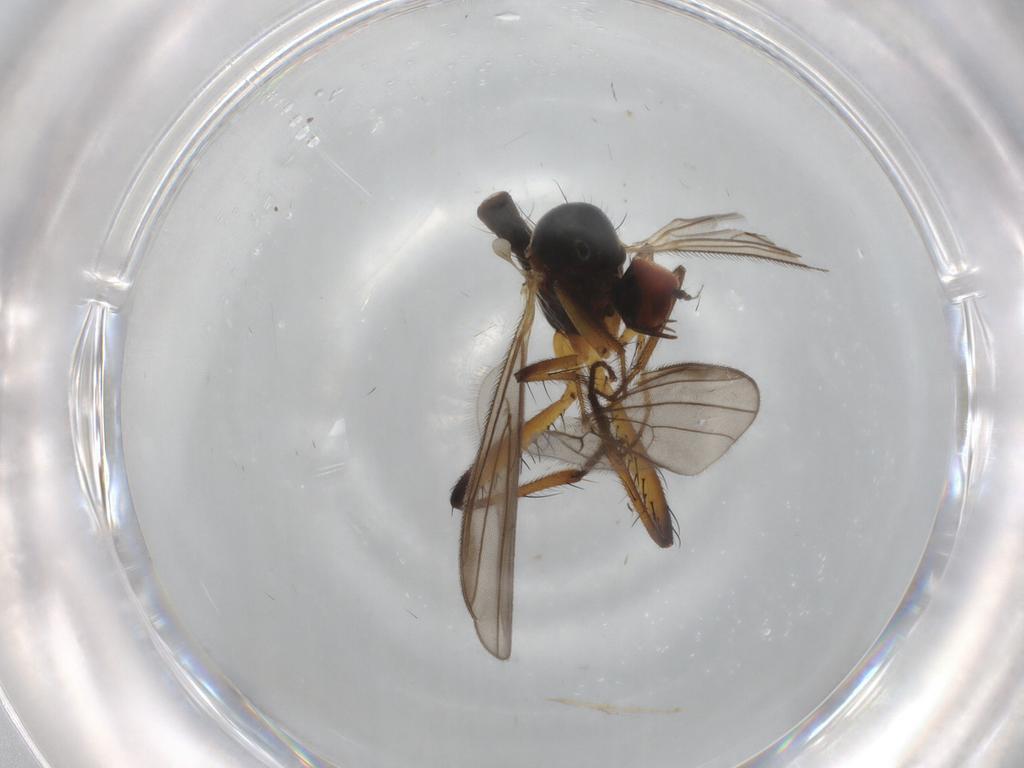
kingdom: Animalia
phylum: Arthropoda
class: Insecta
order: Diptera
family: Hybotidae
